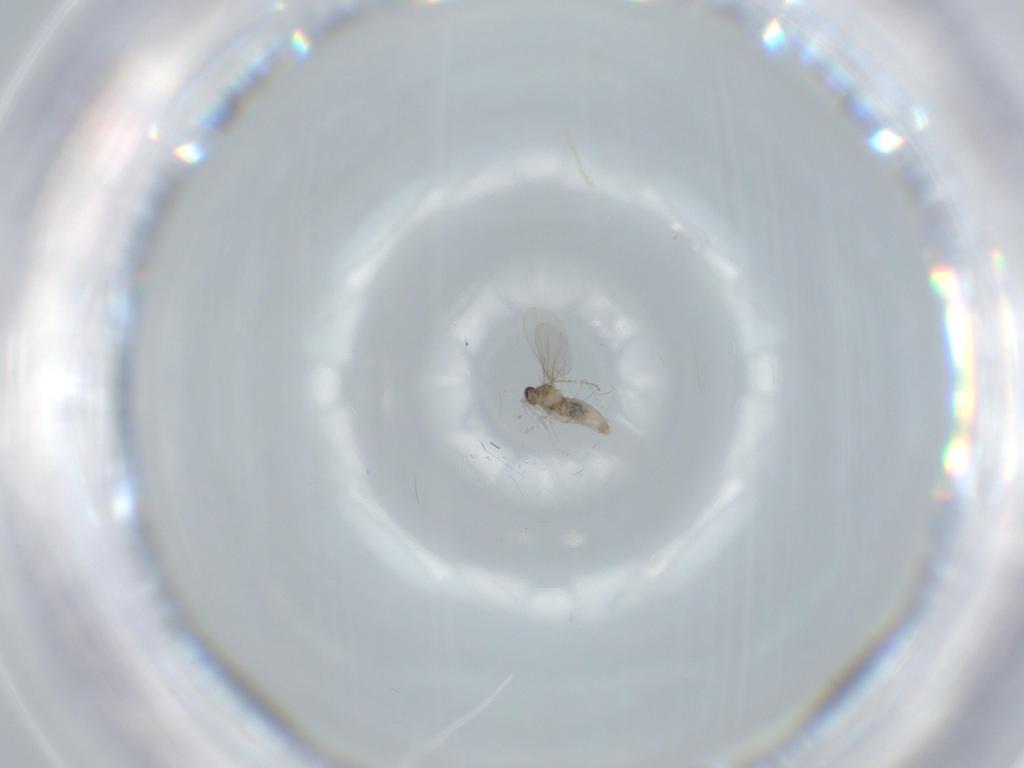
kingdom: Animalia
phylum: Arthropoda
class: Insecta
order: Diptera
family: Periscelididae
